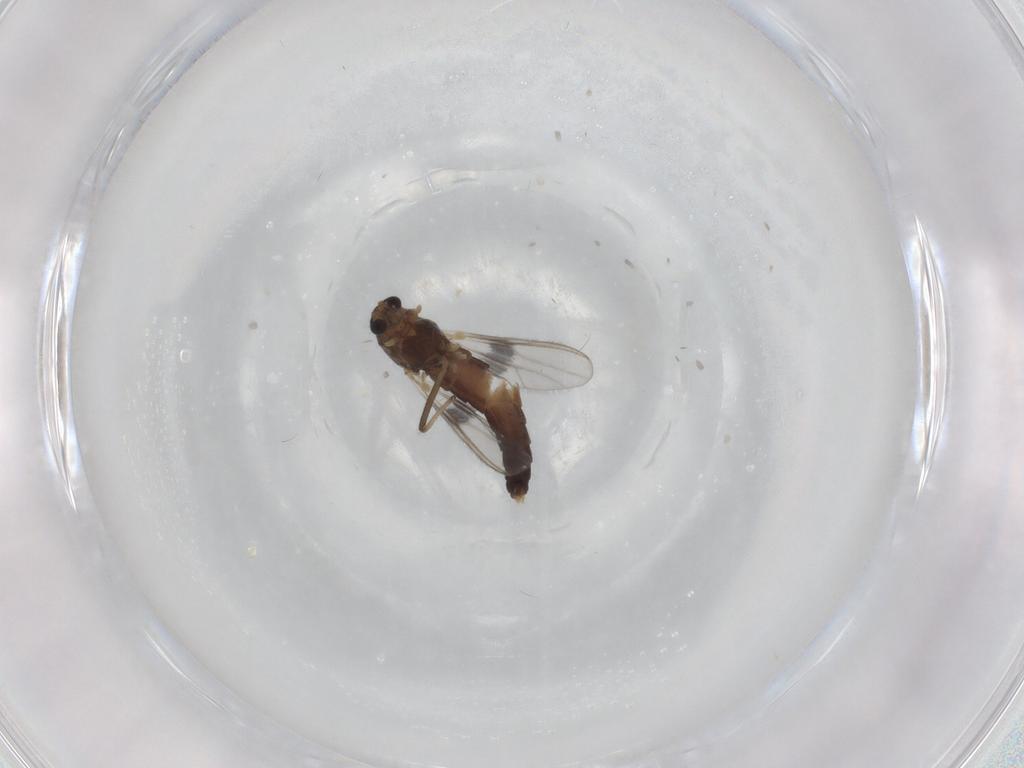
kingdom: Animalia
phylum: Arthropoda
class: Insecta
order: Diptera
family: Chironomidae
